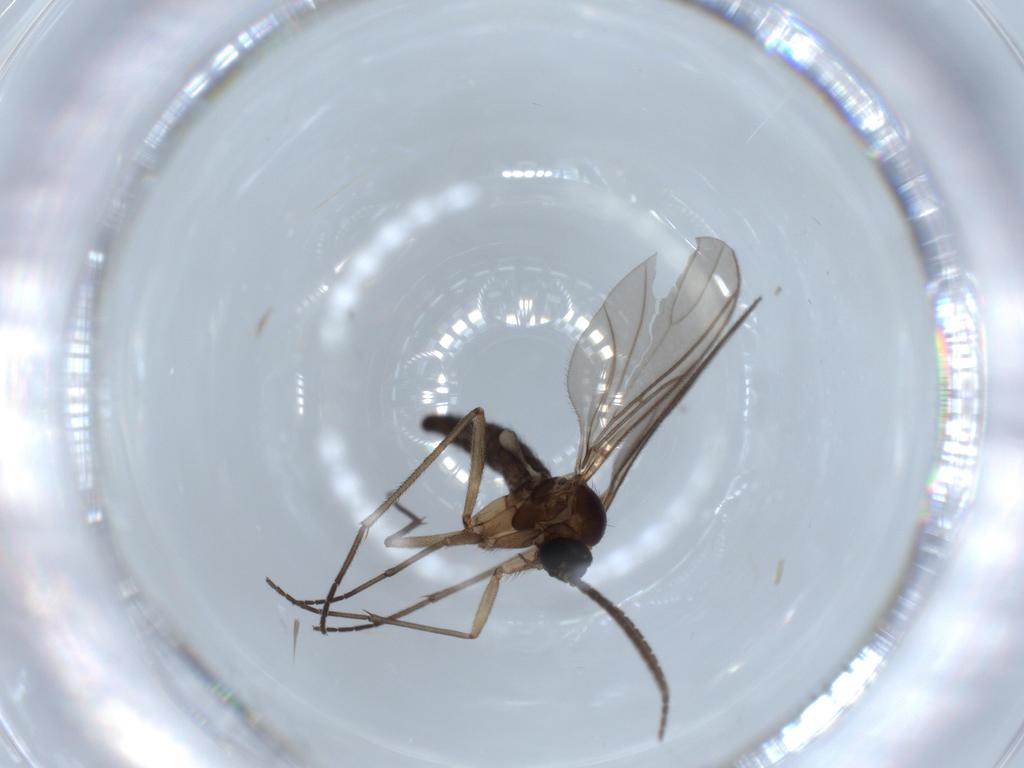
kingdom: Animalia
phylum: Arthropoda
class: Insecta
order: Diptera
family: Sciaridae
